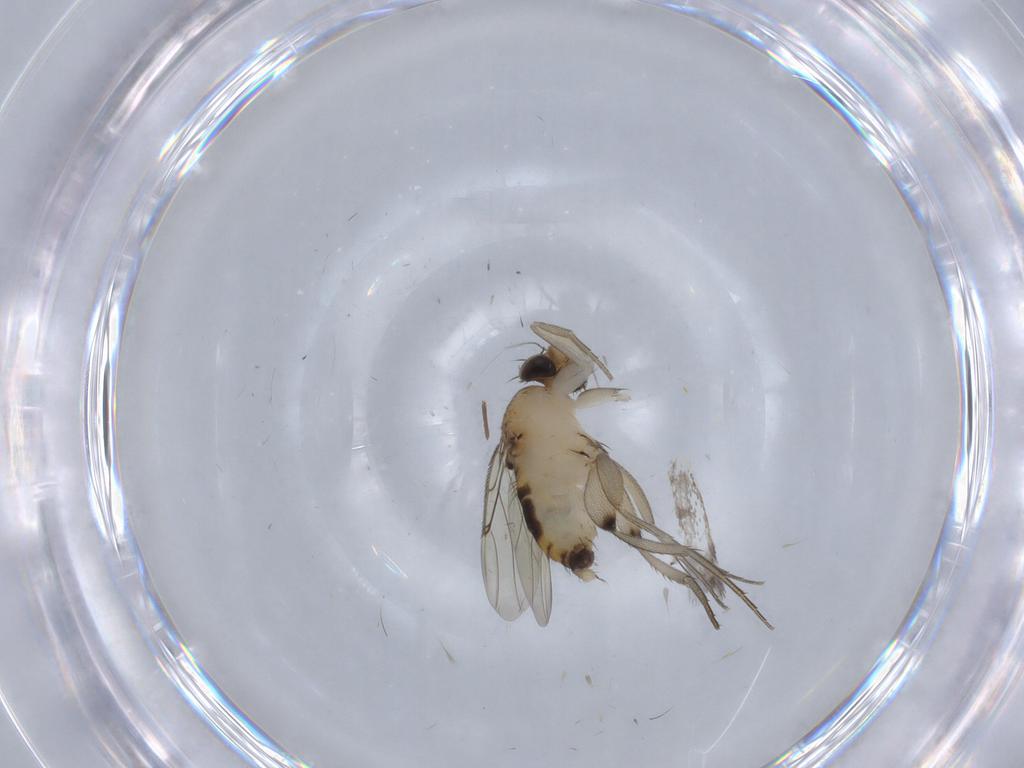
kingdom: Animalia
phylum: Arthropoda
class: Insecta
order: Diptera
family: Phoridae
